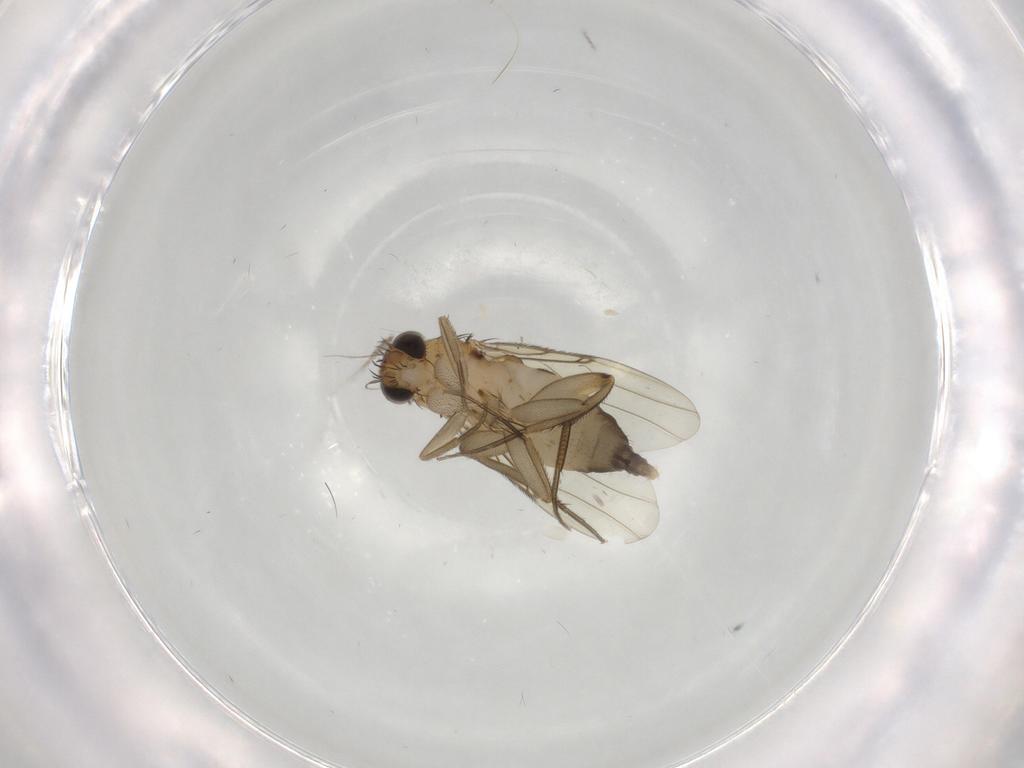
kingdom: Animalia
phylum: Arthropoda
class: Insecta
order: Diptera
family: Phoridae
